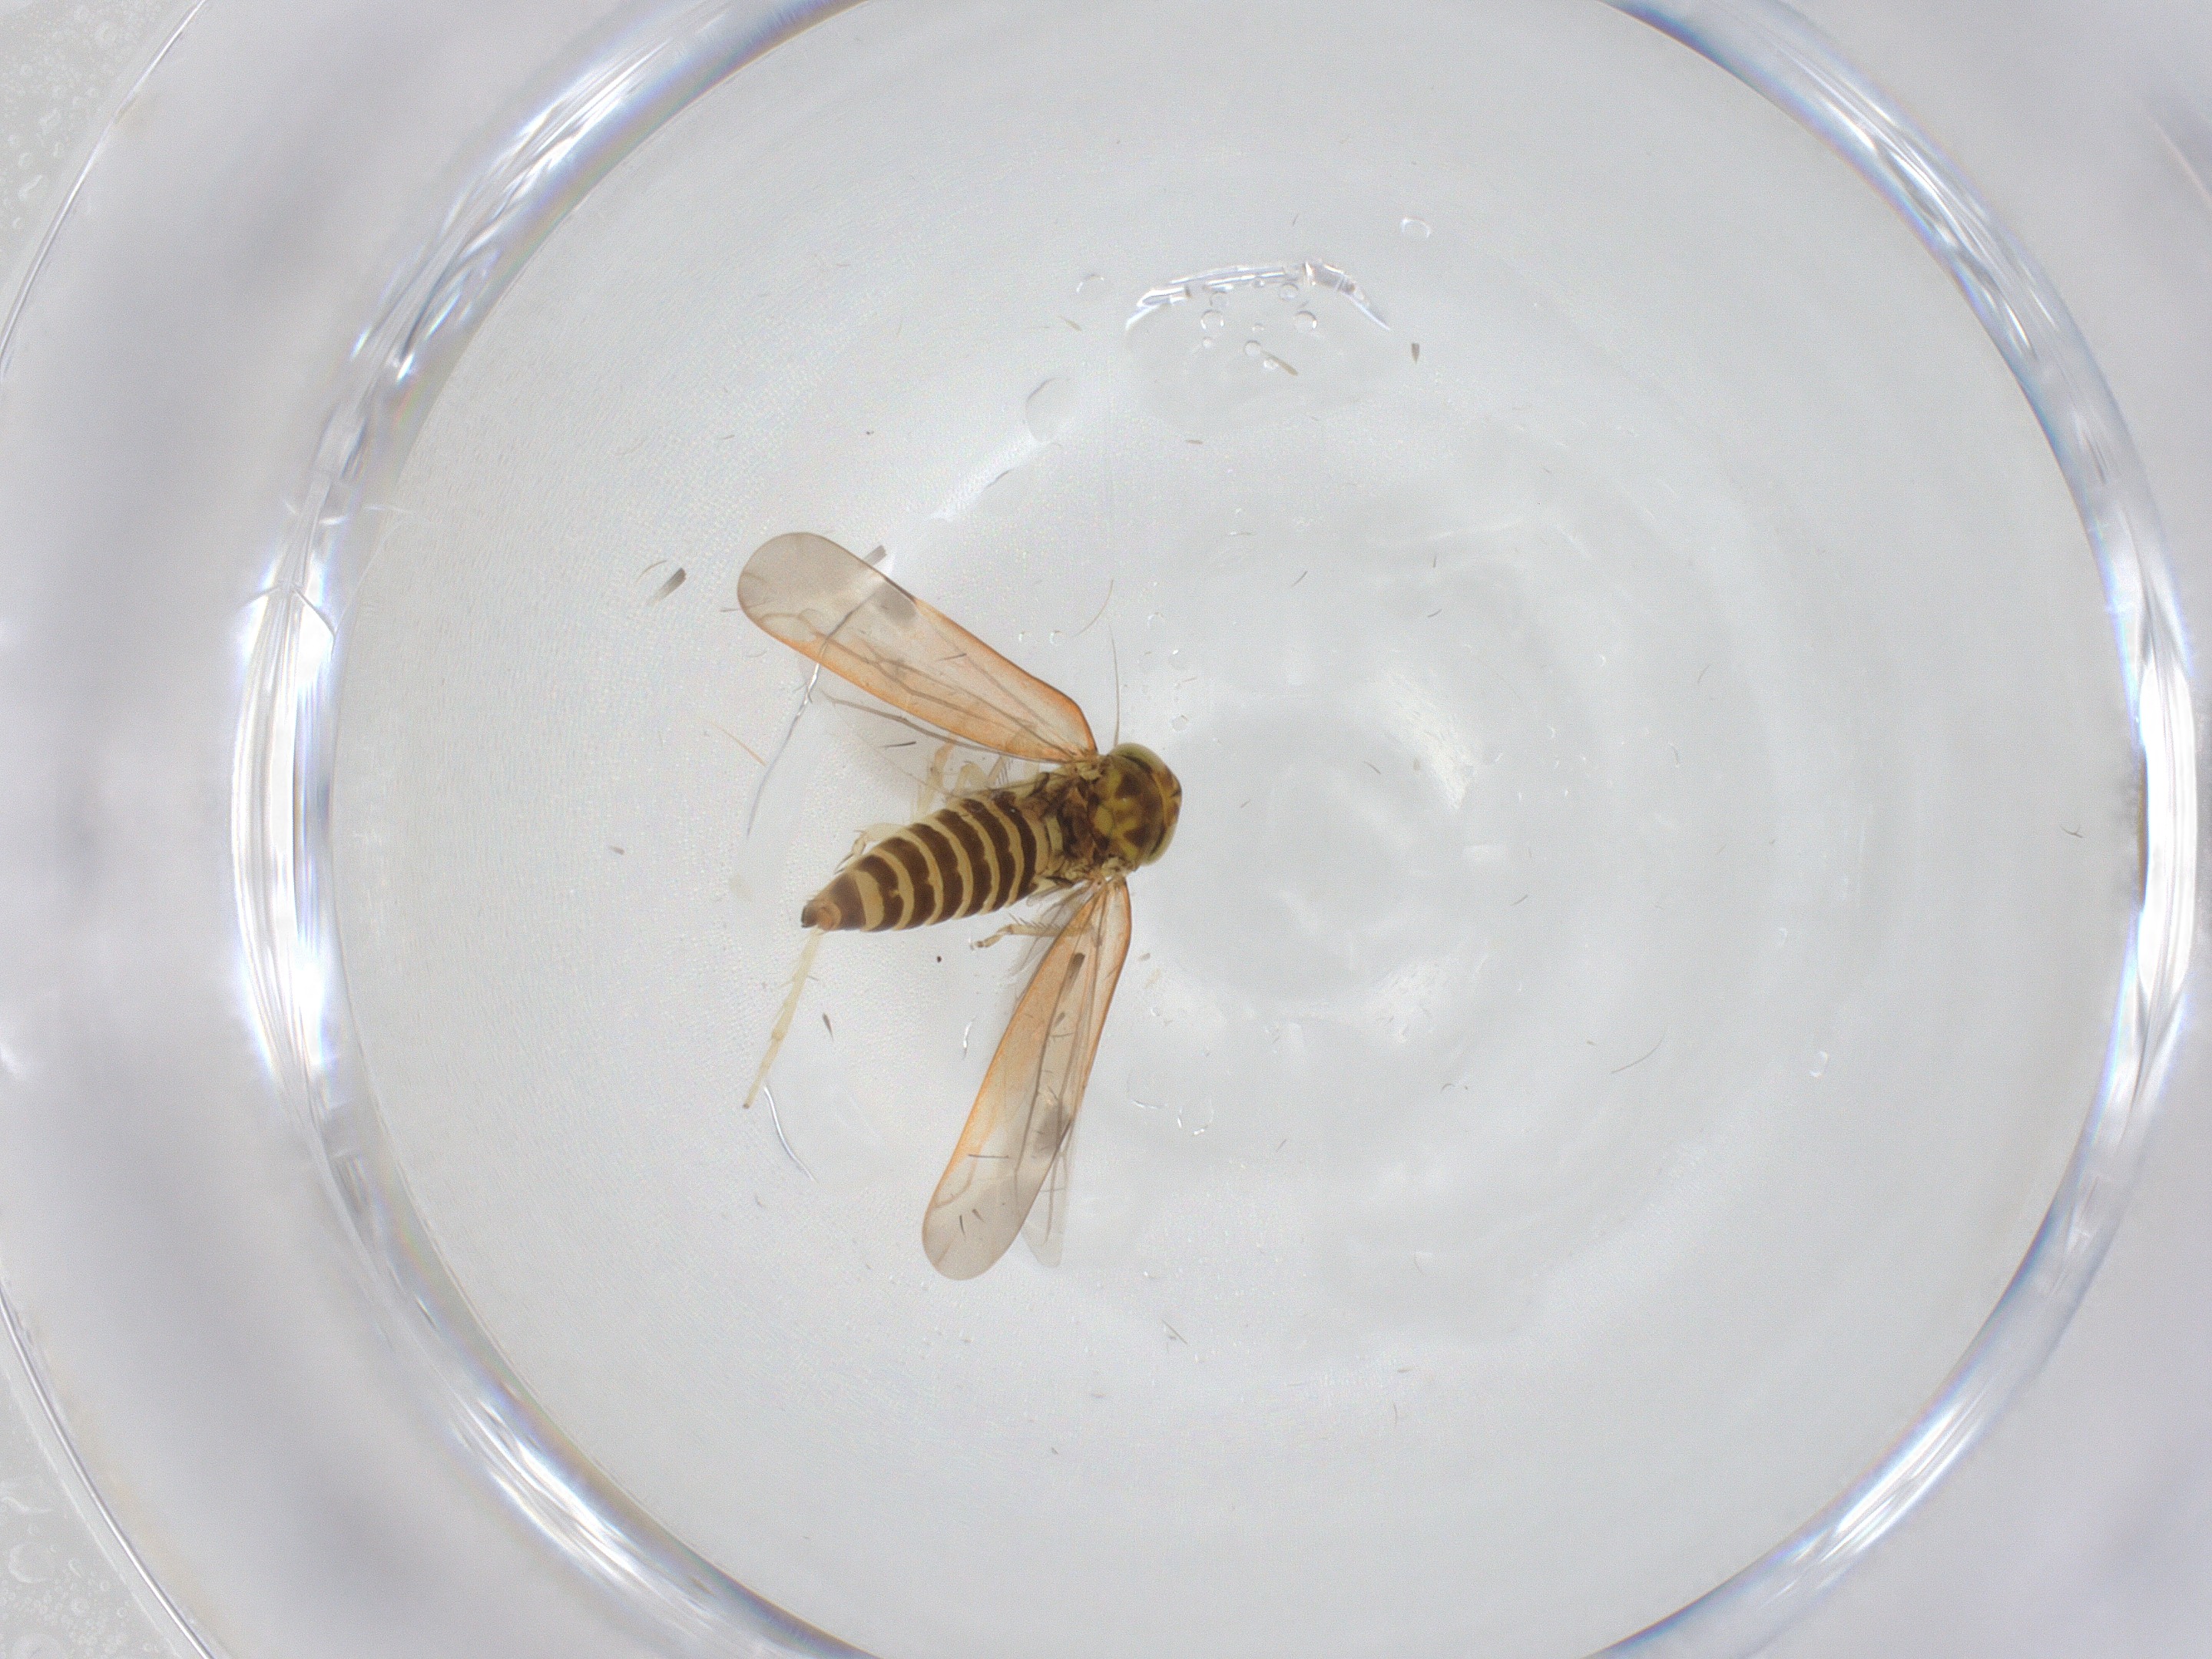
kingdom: Animalia
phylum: Arthropoda
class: Insecta
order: Hemiptera
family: Cicadellidae
